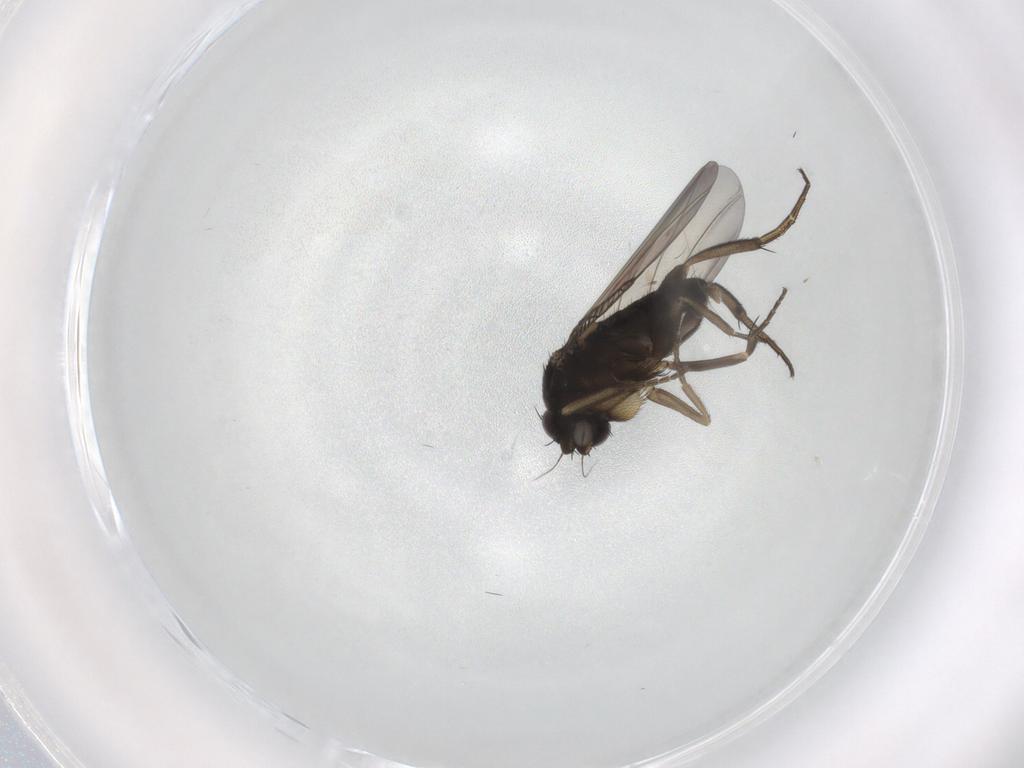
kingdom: Animalia
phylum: Arthropoda
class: Insecta
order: Diptera
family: Phoridae
